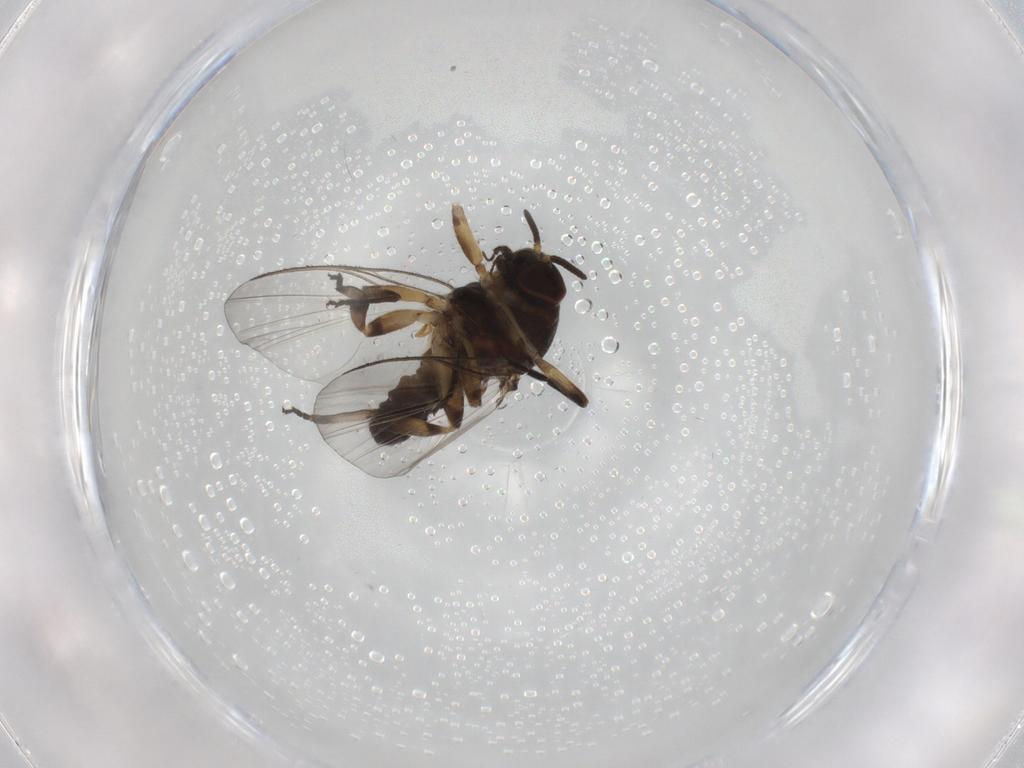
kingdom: Animalia
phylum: Arthropoda
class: Insecta
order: Diptera
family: Simuliidae
